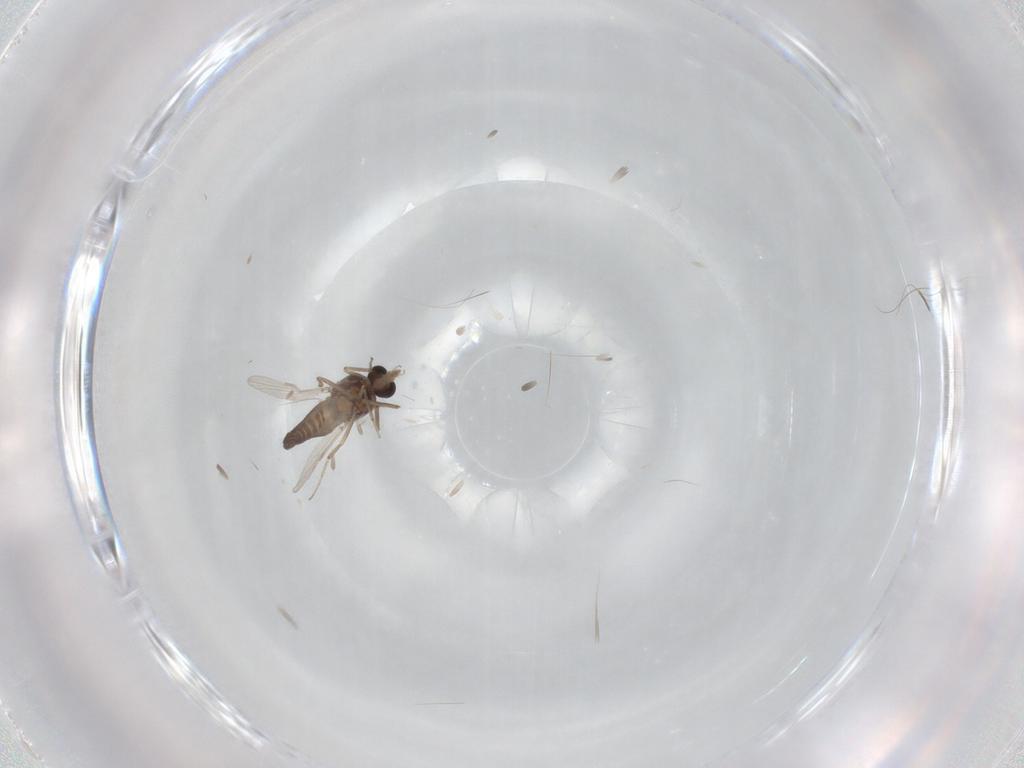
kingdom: Animalia
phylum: Arthropoda
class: Insecta
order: Diptera
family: Ceratopogonidae
